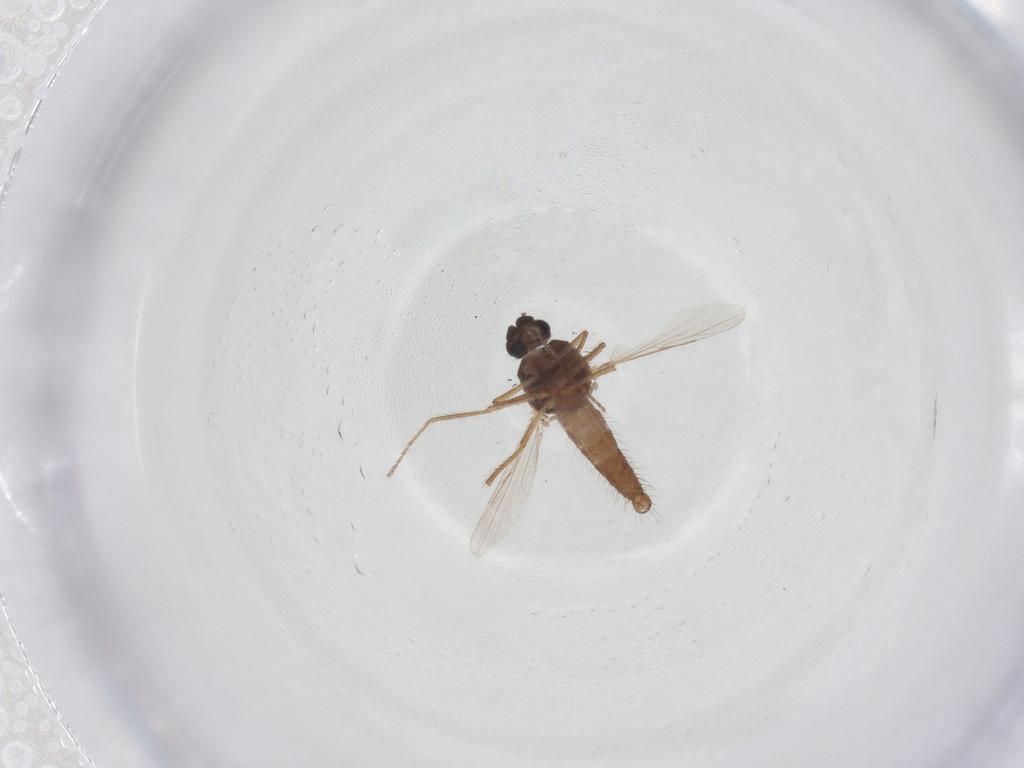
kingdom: Animalia
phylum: Arthropoda
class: Insecta
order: Diptera
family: Ceratopogonidae
